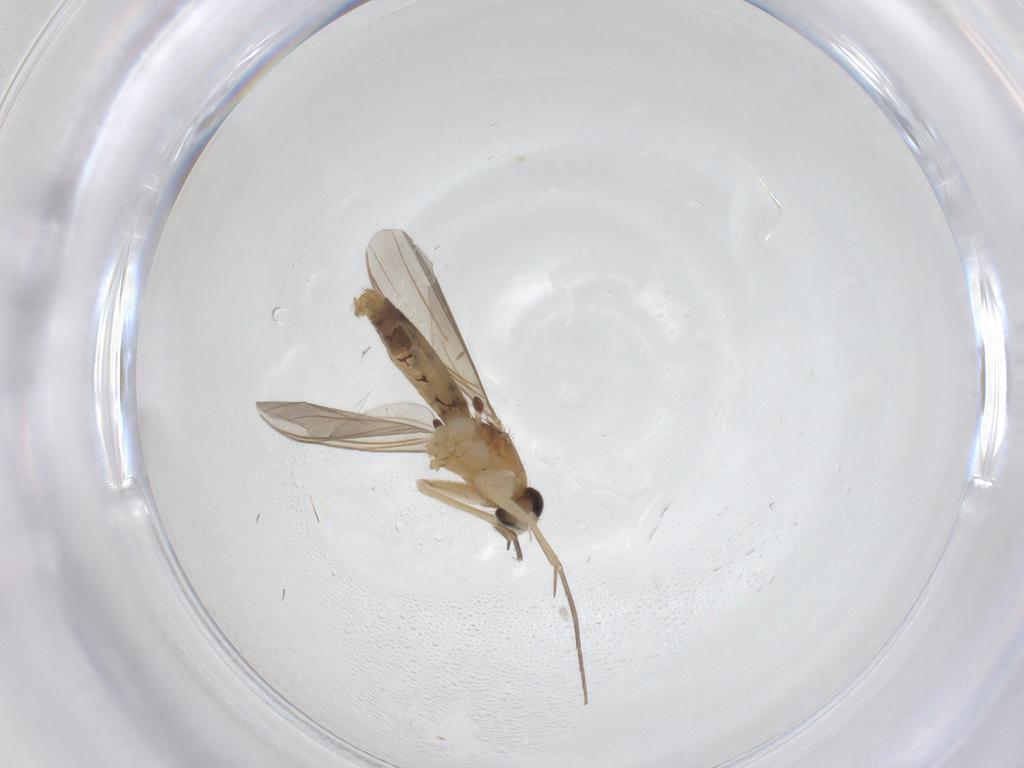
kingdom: Animalia
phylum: Arthropoda
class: Insecta
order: Diptera
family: Mycetophilidae
